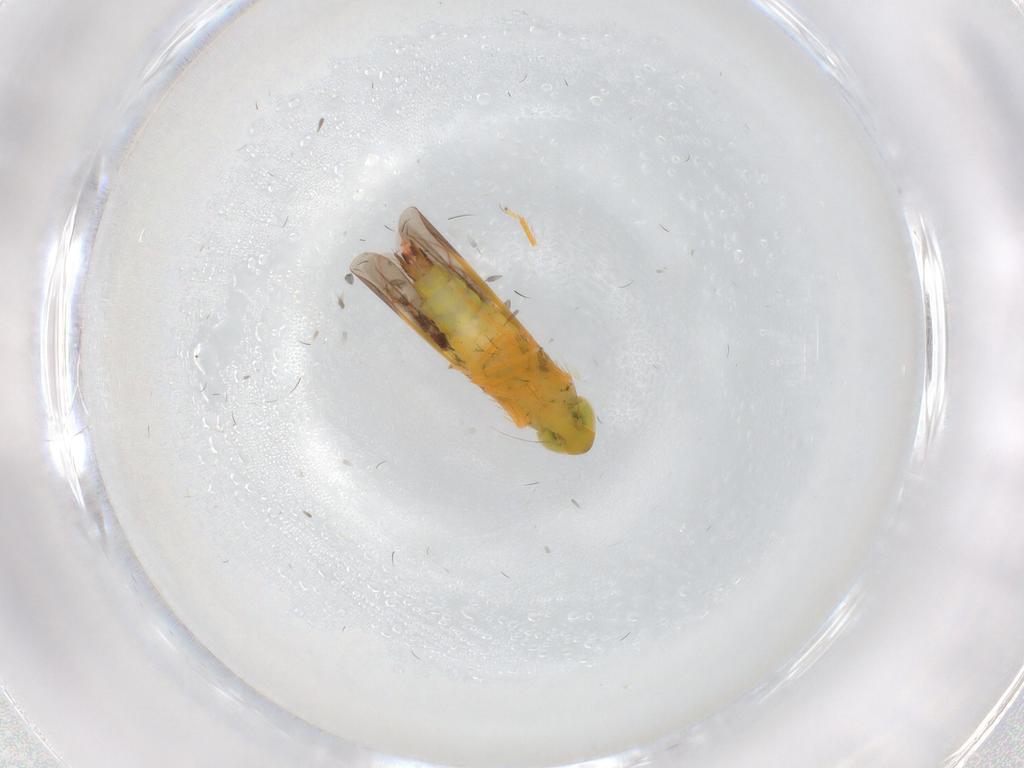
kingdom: Animalia
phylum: Arthropoda
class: Insecta
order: Hemiptera
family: Cicadellidae
